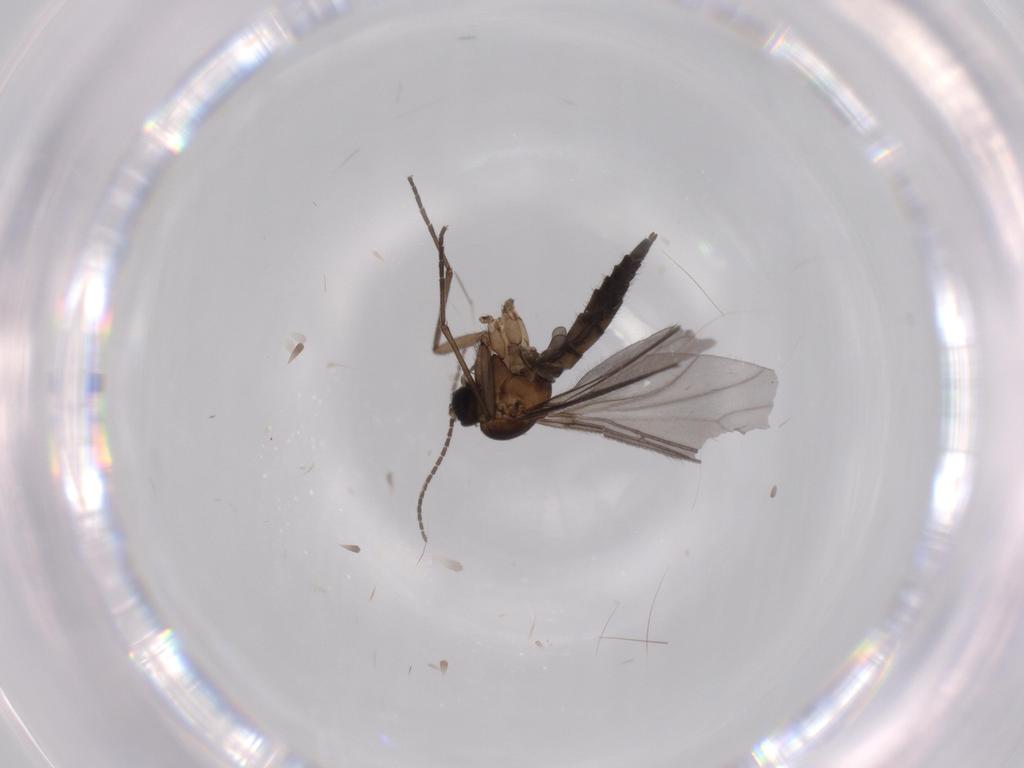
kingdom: Animalia
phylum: Arthropoda
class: Insecta
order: Diptera
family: Sciaridae
